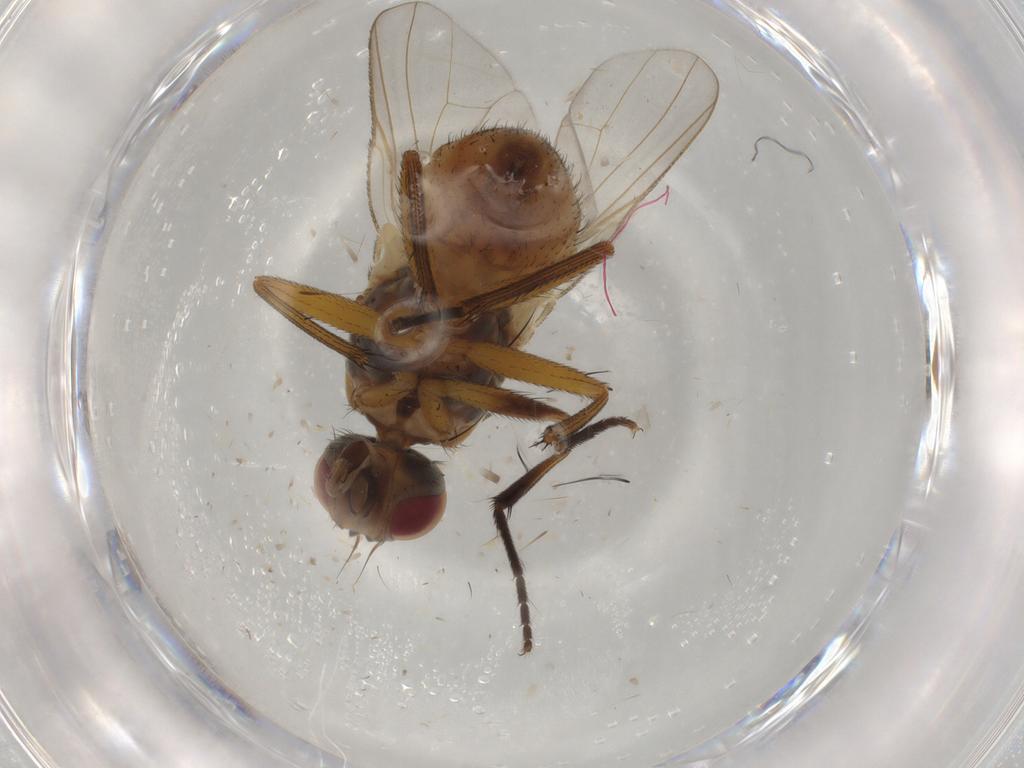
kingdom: Animalia
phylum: Arthropoda
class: Insecta
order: Diptera
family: Muscidae
